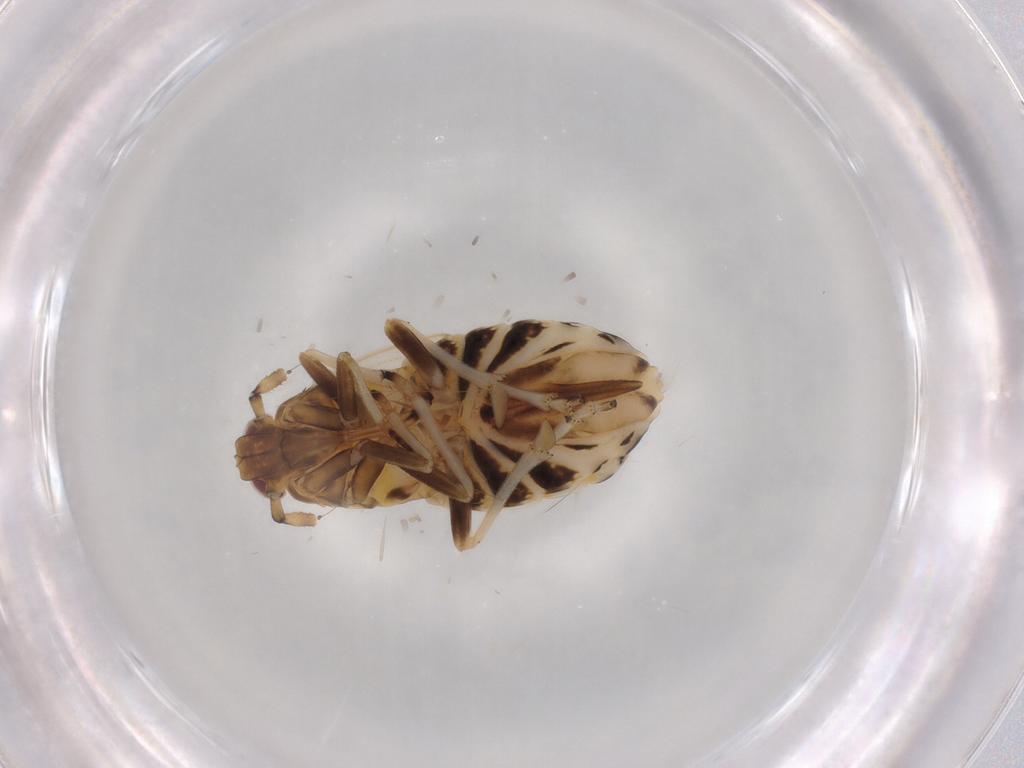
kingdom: Animalia
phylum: Arthropoda
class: Insecta
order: Hemiptera
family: Delphacidae
